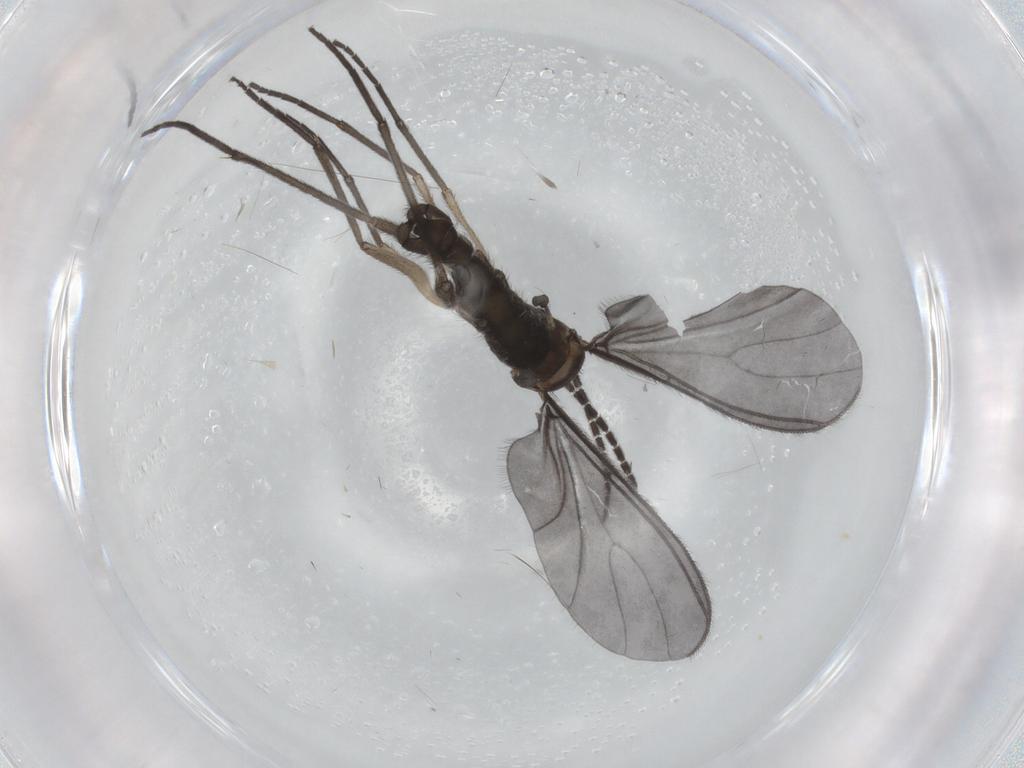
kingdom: Animalia
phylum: Arthropoda
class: Insecta
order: Diptera
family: Sciaridae
